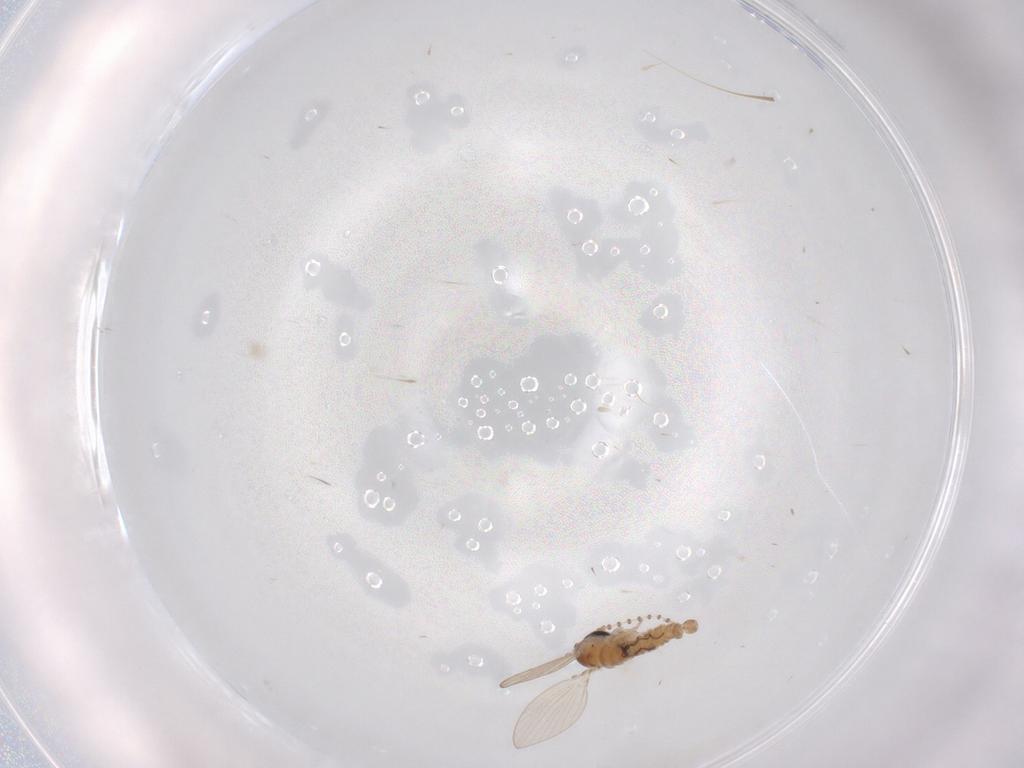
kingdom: Animalia
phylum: Arthropoda
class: Insecta
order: Diptera
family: Psychodidae
